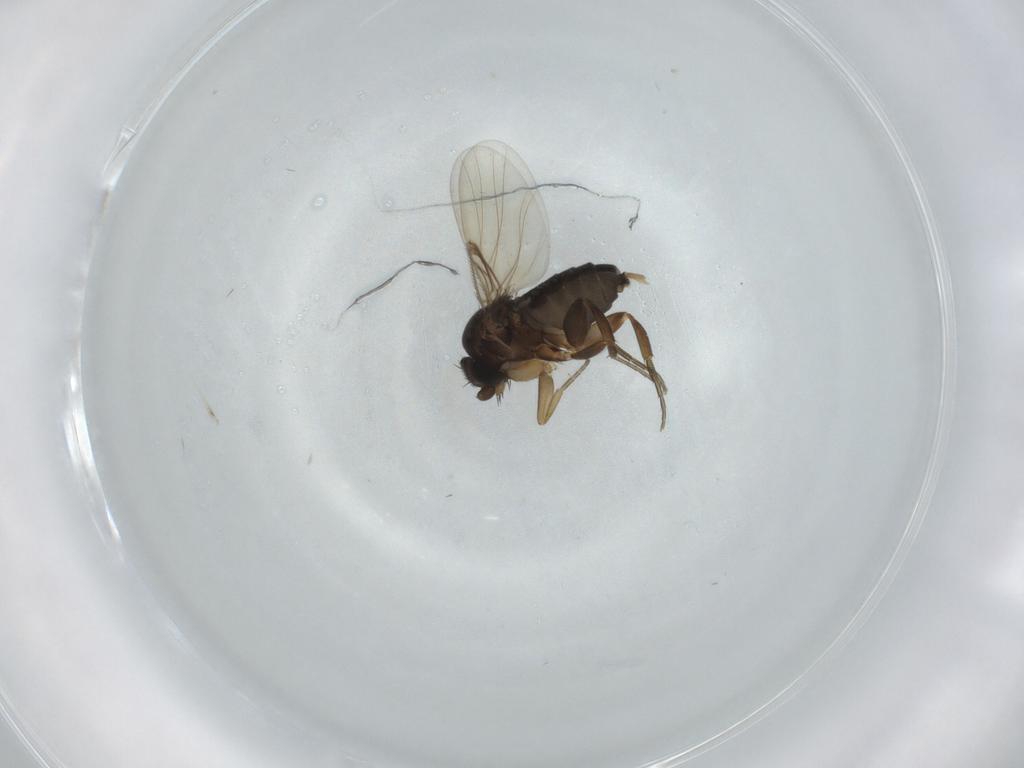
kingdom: Animalia
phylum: Arthropoda
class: Insecta
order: Diptera
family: Phoridae
